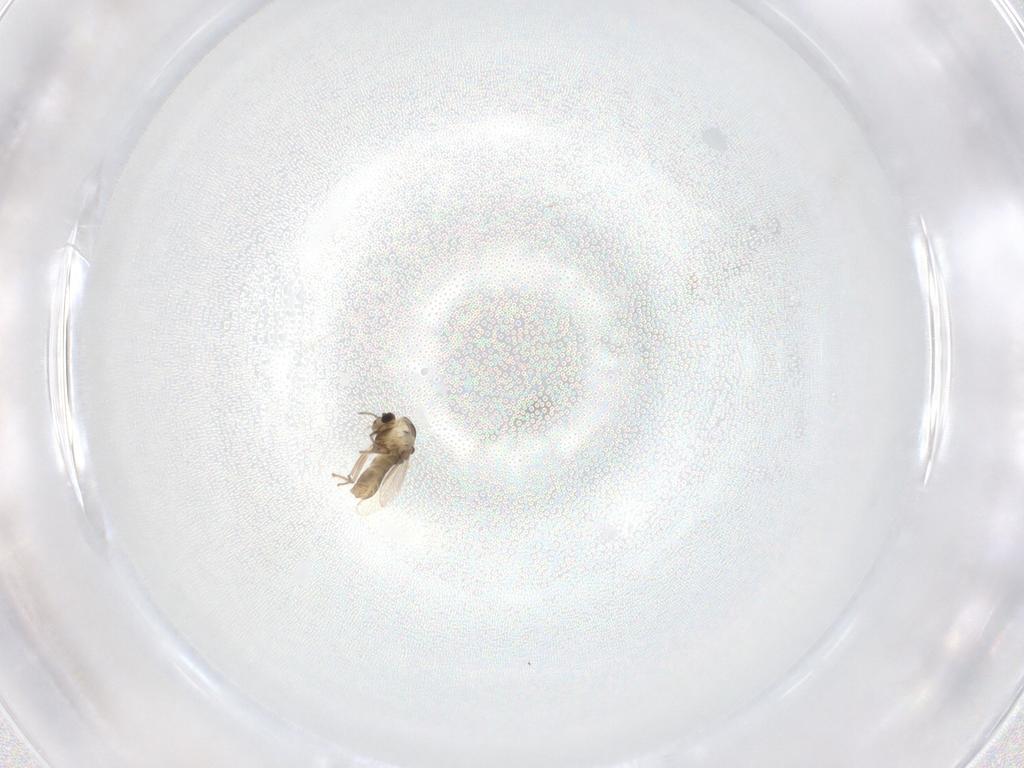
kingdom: Animalia
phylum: Arthropoda
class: Insecta
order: Diptera
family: Chironomidae
